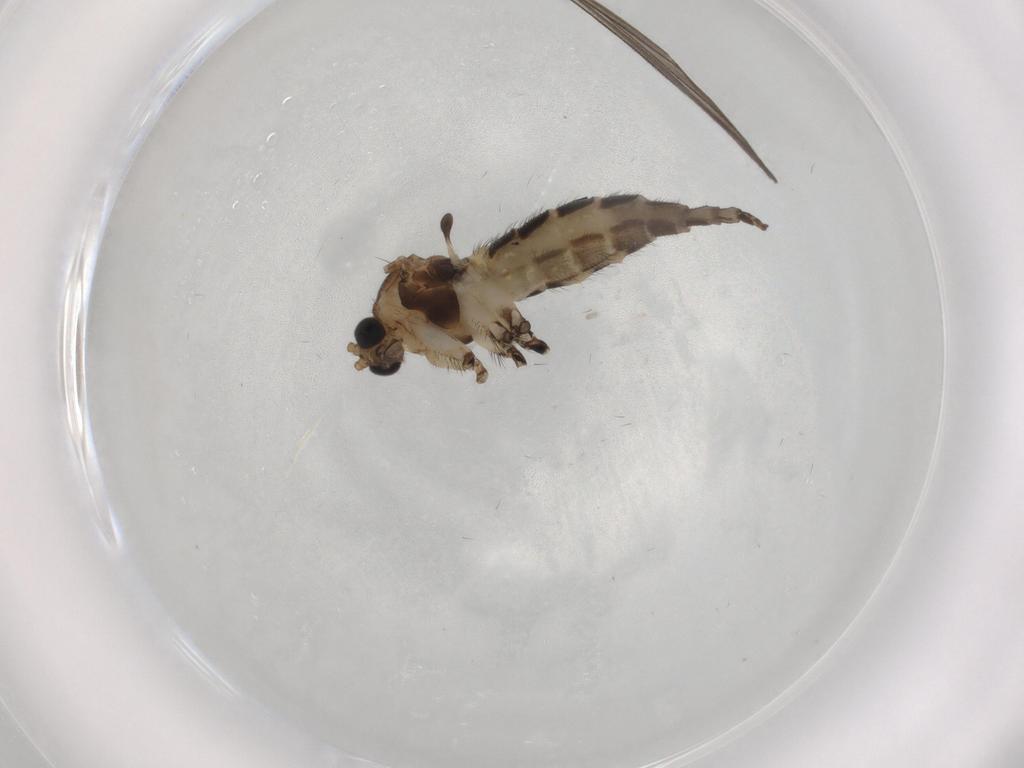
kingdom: Animalia
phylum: Arthropoda
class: Insecta
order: Diptera
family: Sciaridae
